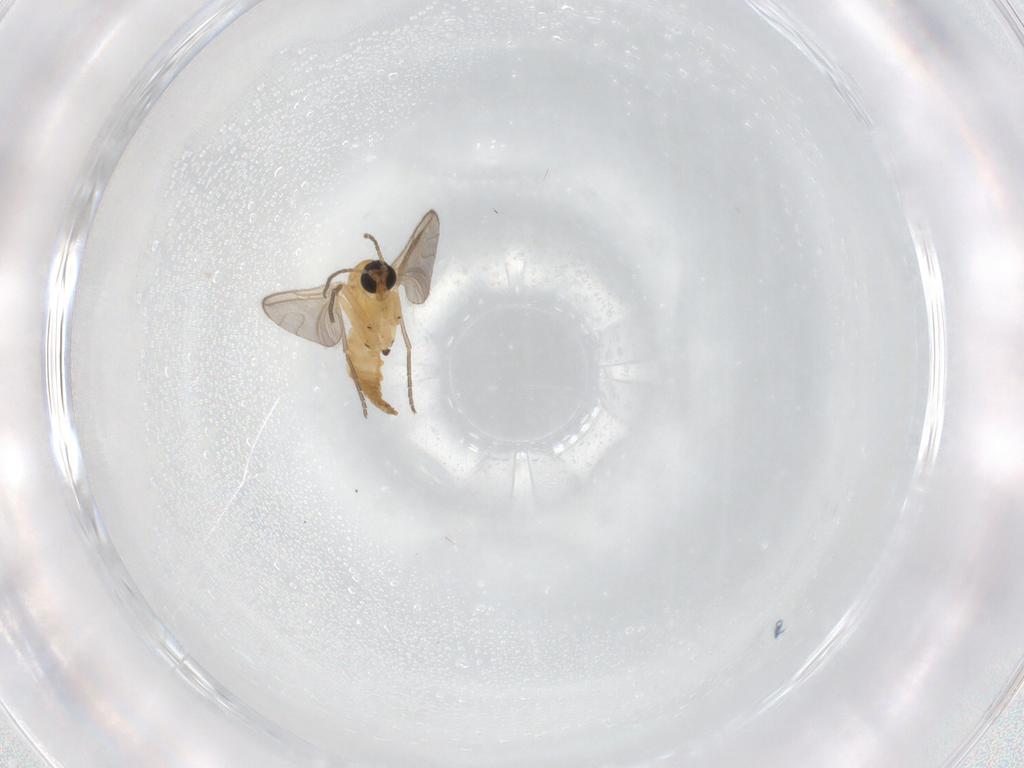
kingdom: Animalia
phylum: Arthropoda
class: Insecta
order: Diptera
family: Sciaridae
